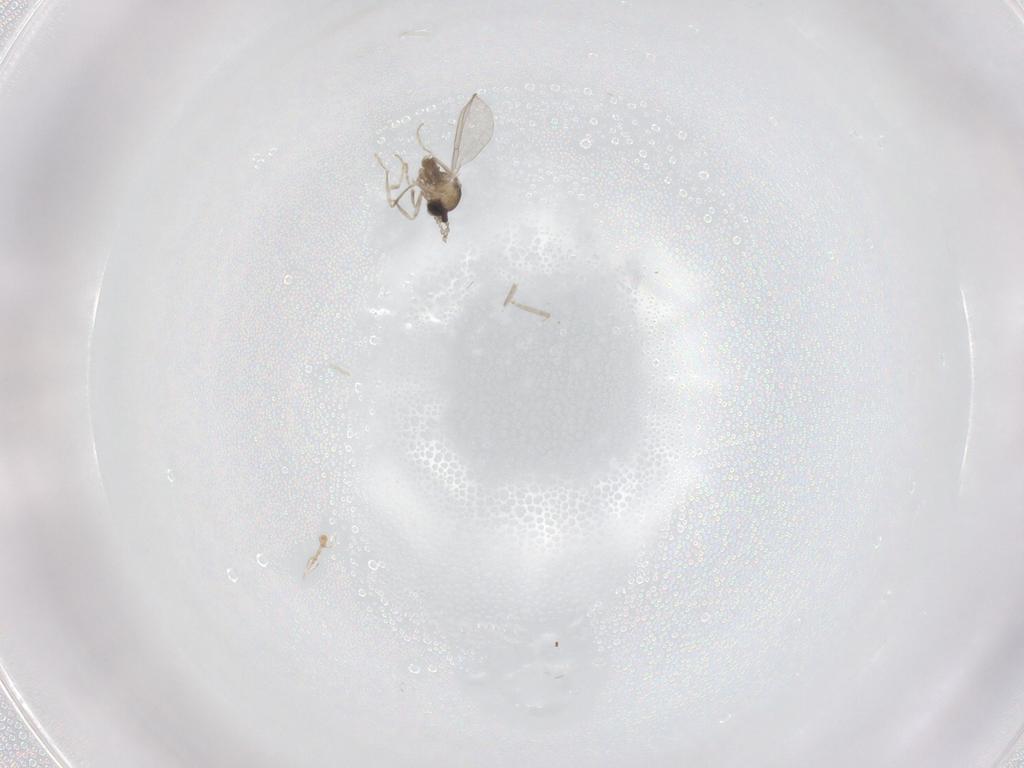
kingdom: Animalia
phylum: Arthropoda
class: Insecta
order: Diptera
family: Cecidomyiidae
